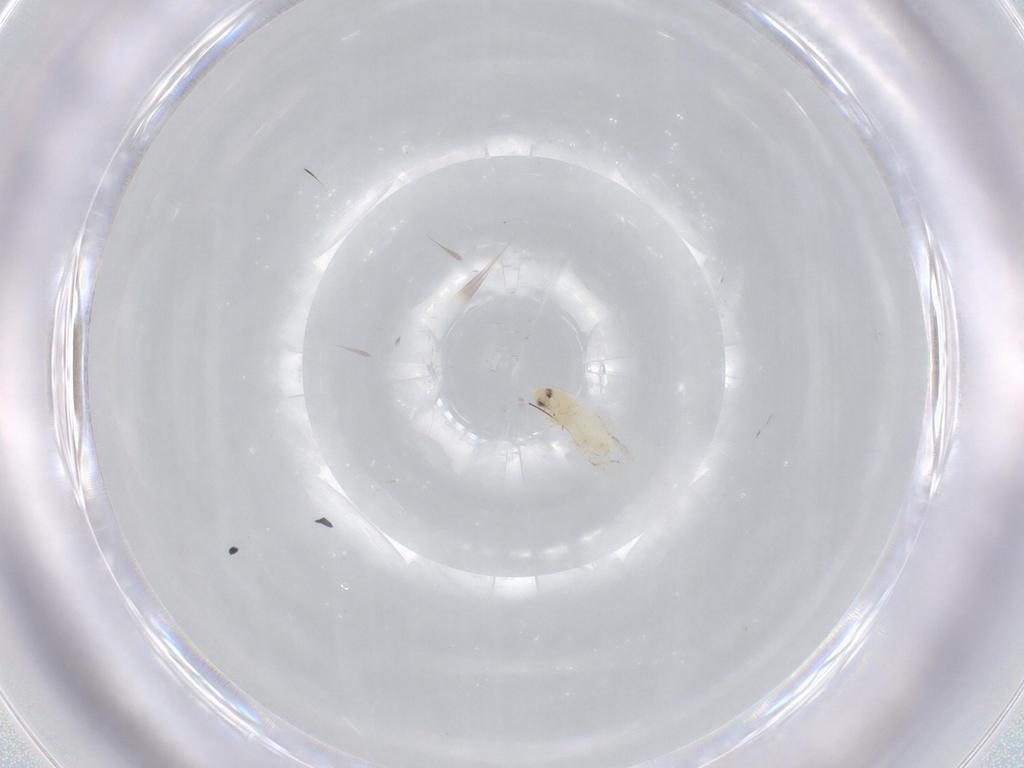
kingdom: Animalia
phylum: Arthropoda
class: Insecta
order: Hemiptera
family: Aleyrodidae
